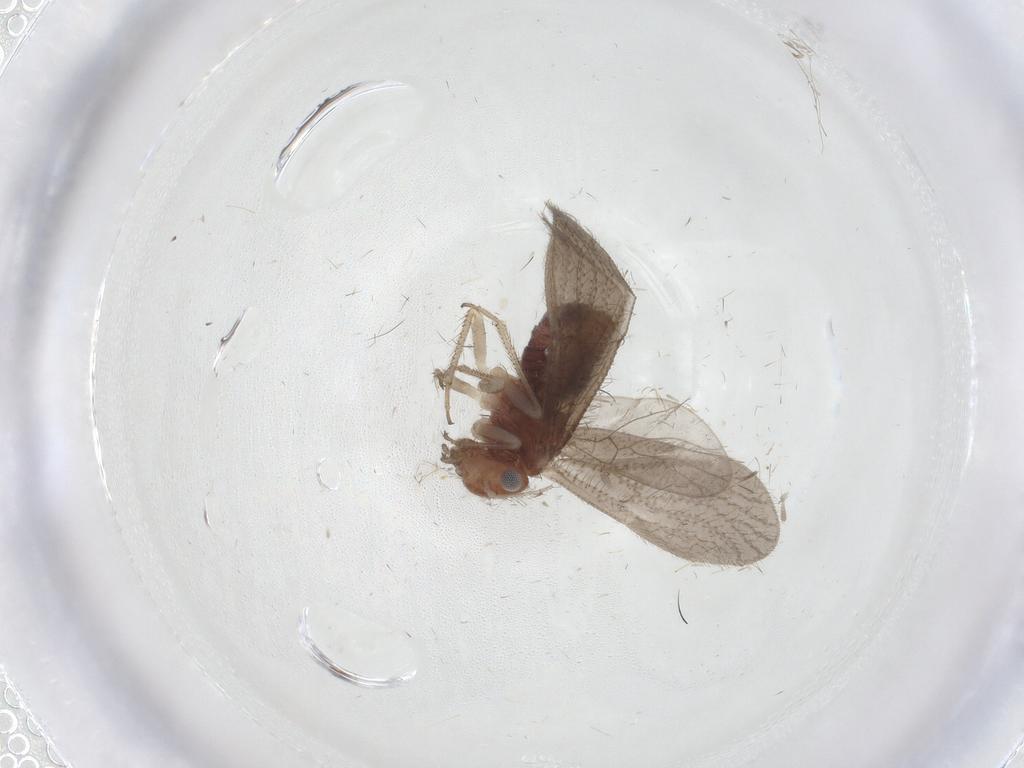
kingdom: Animalia
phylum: Arthropoda
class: Insecta
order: Psocodea
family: Pseudocaeciliidae
